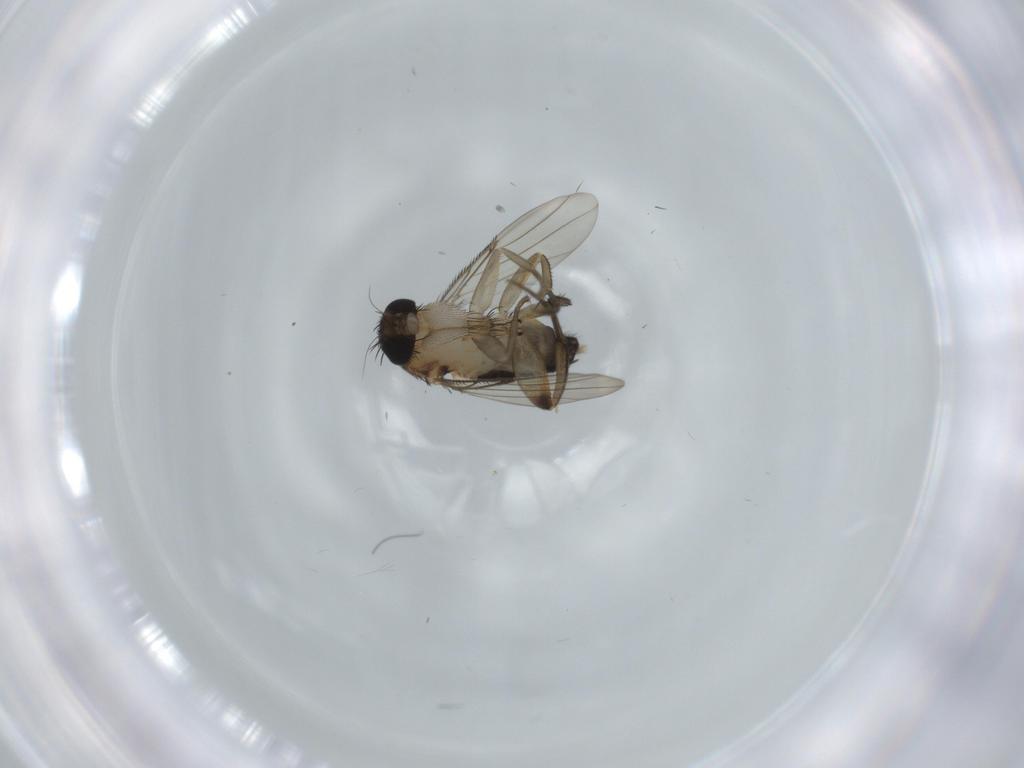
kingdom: Animalia
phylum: Arthropoda
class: Insecta
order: Diptera
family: Phoridae
